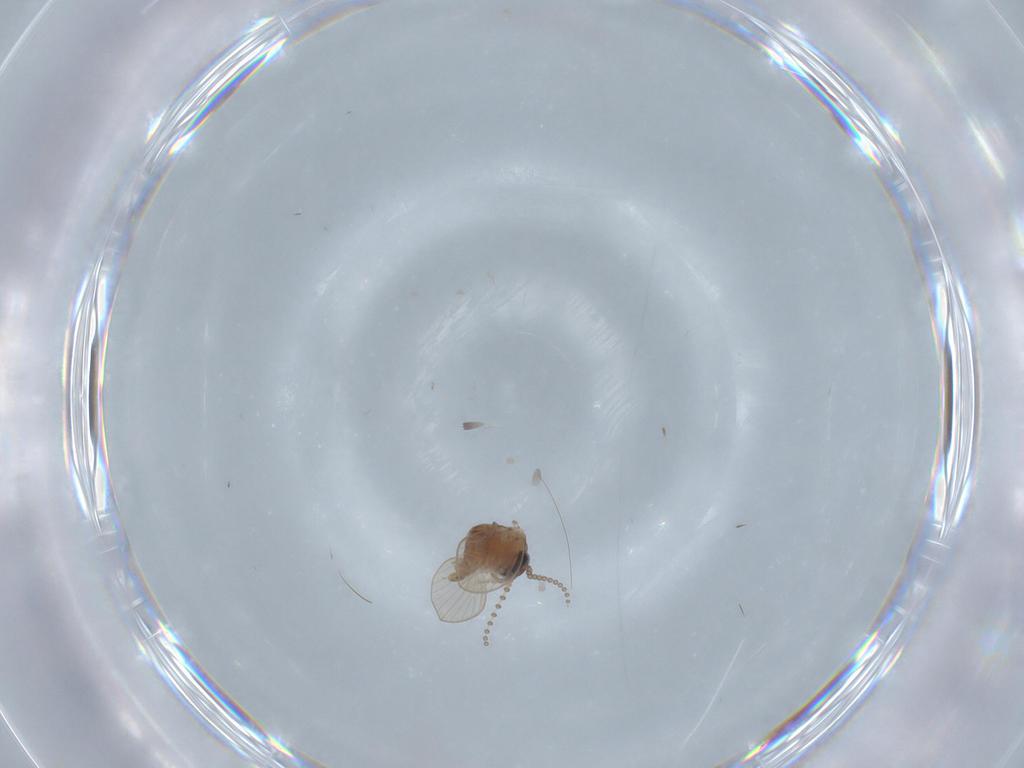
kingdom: Animalia
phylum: Arthropoda
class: Insecta
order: Diptera
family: Psychodidae
